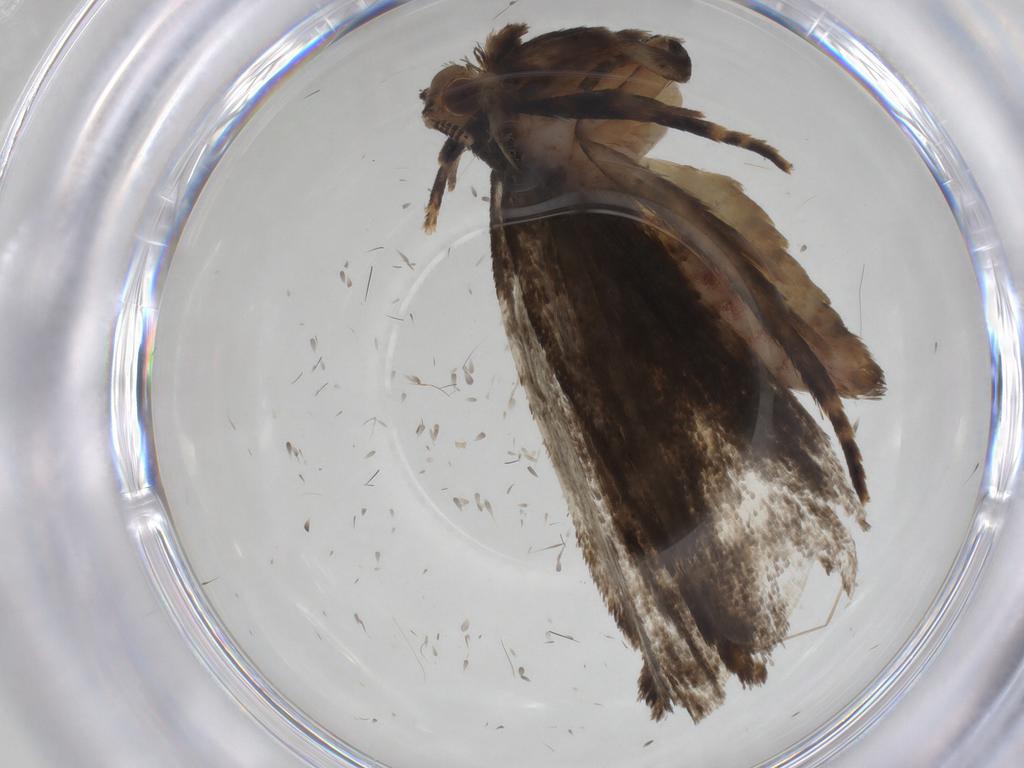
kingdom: Animalia
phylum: Arthropoda
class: Insecta
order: Lepidoptera
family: Tineidae
